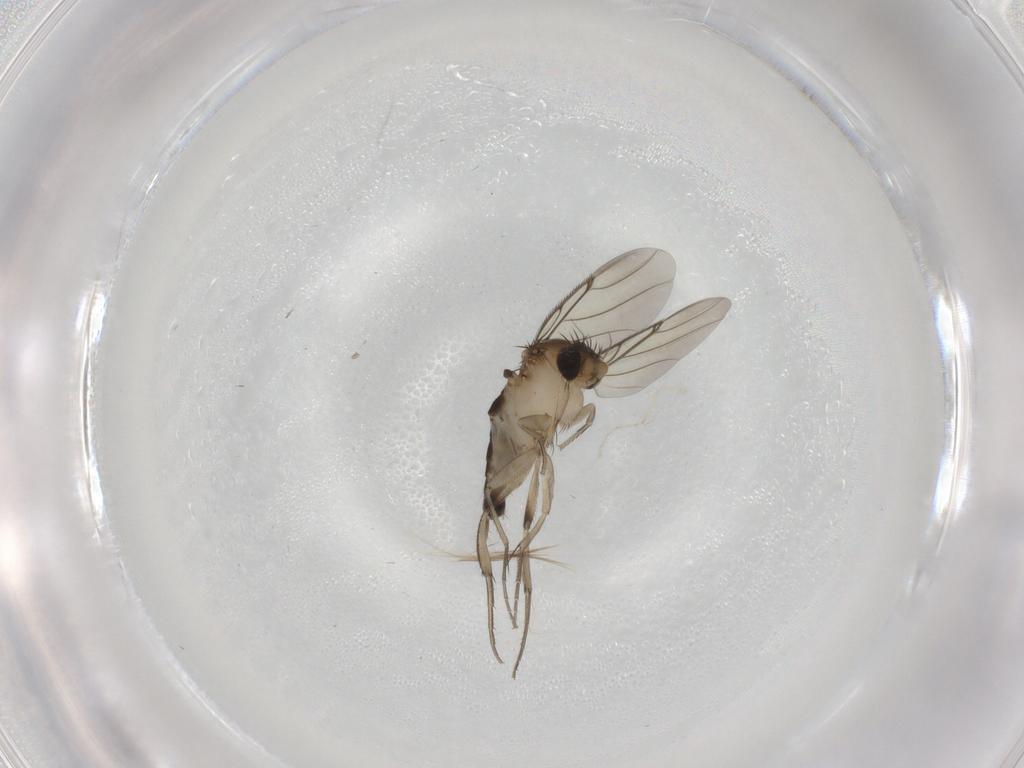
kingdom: Animalia
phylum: Arthropoda
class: Insecta
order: Diptera
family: Phoridae
